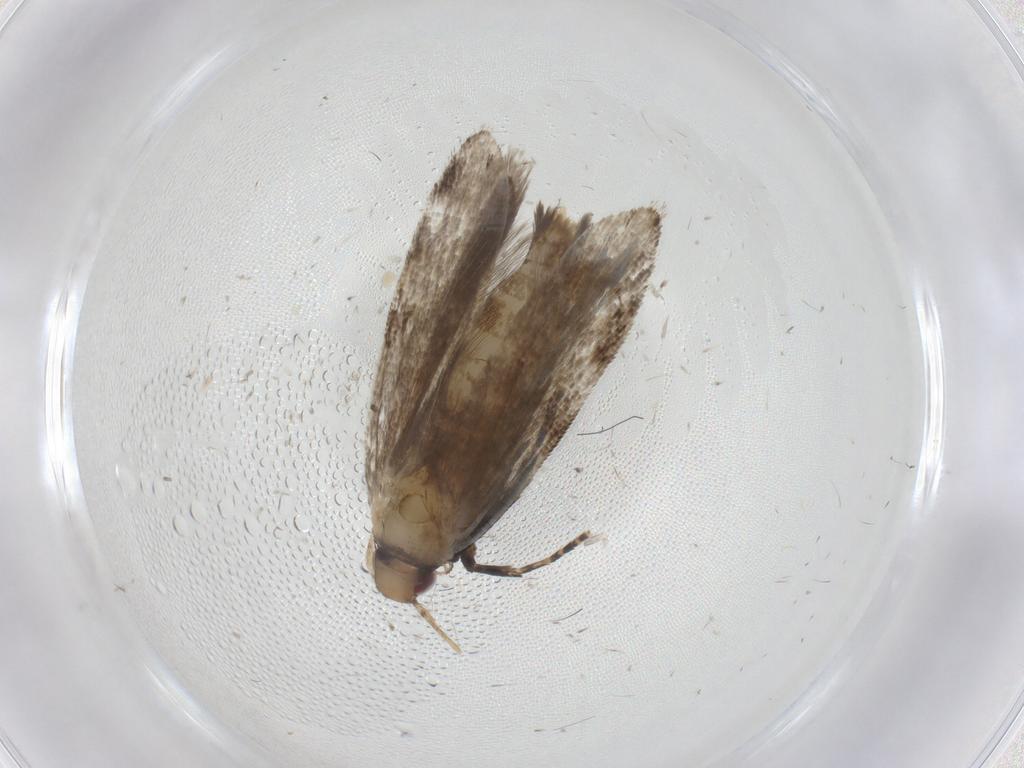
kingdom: Animalia
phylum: Arthropoda
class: Insecta
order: Lepidoptera
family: Gelechiidae
